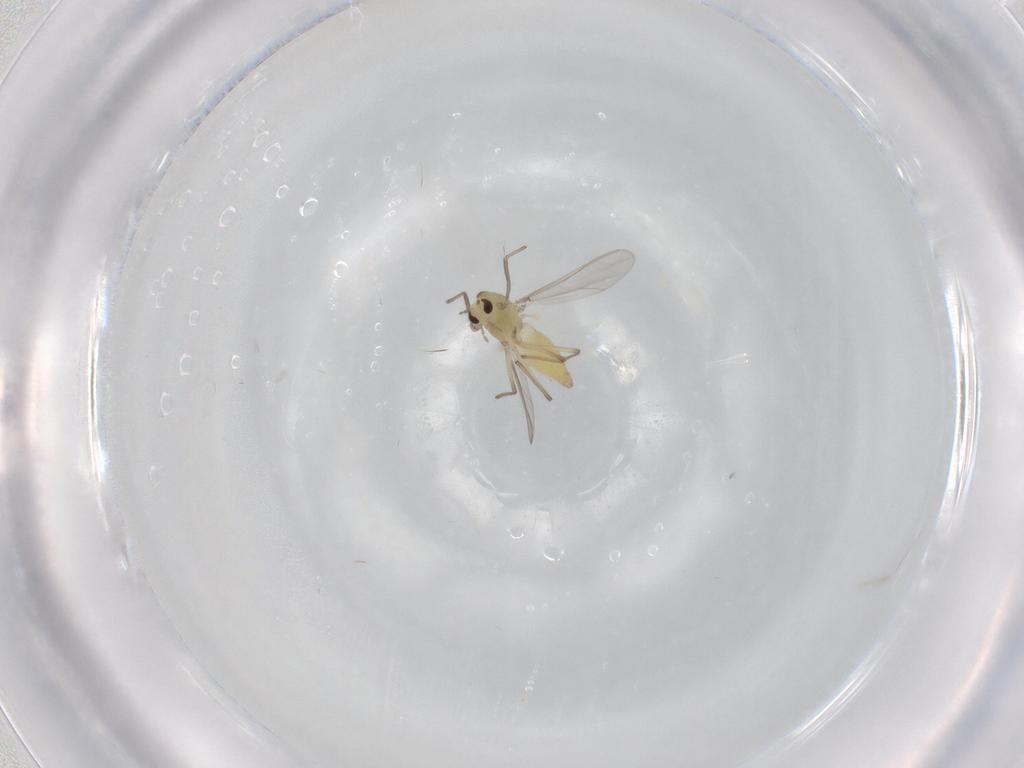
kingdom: Animalia
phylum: Arthropoda
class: Insecta
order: Diptera
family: Chironomidae
